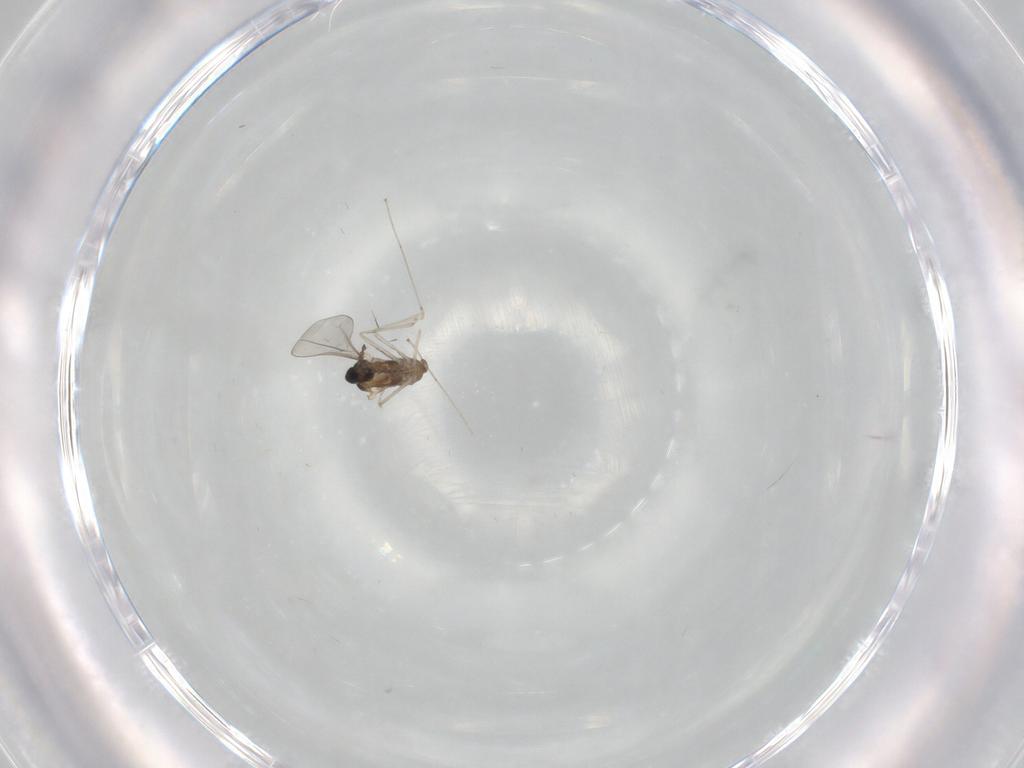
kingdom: Animalia
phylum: Arthropoda
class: Insecta
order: Diptera
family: Cecidomyiidae
